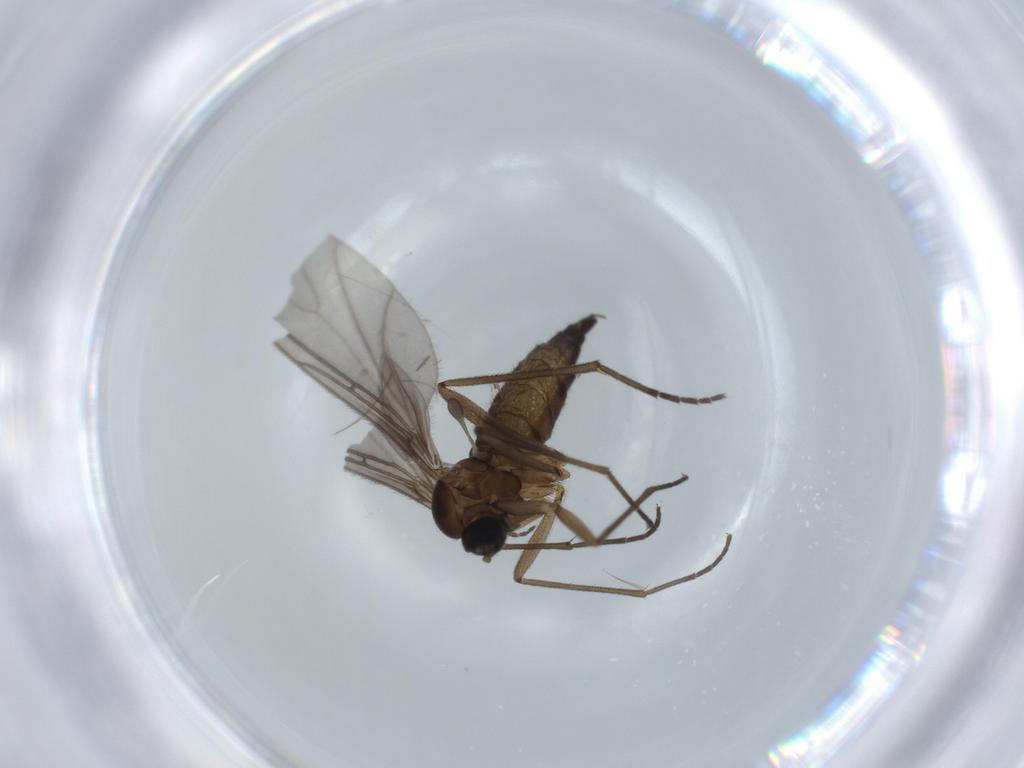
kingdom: Animalia
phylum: Arthropoda
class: Insecta
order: Diptera
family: Sciaridae
